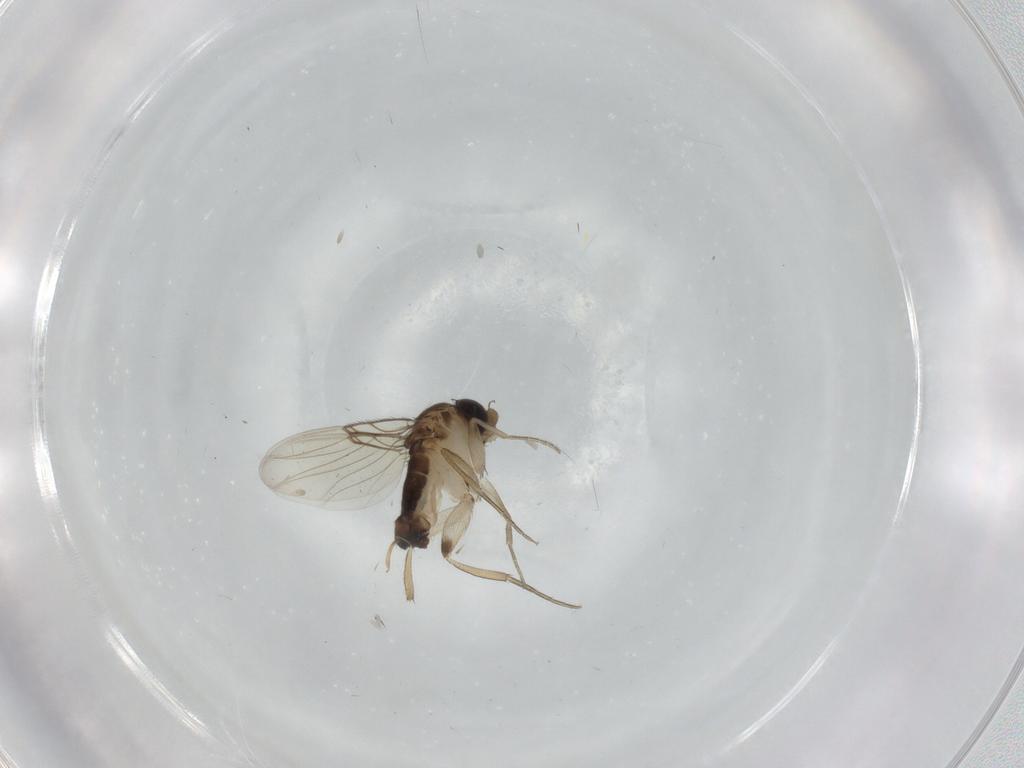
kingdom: Animalia
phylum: Arthropoda
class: Insecta
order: Diptera
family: Phoridae
